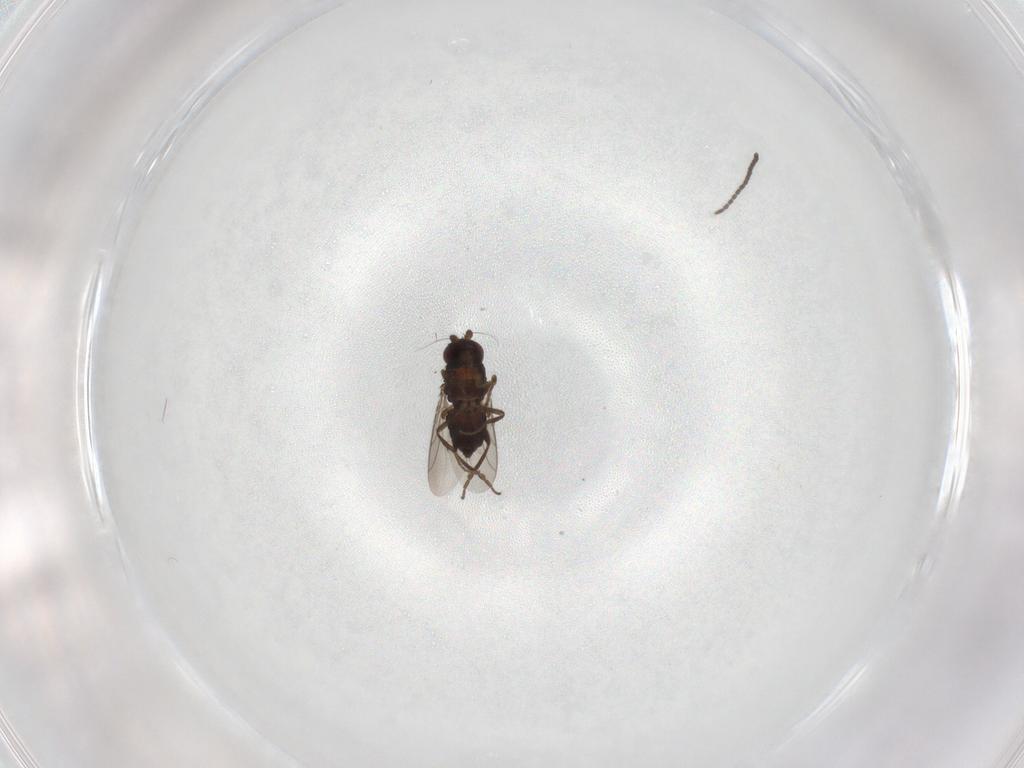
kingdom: Animalia
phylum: Arthropoda
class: Insecta
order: Diptera
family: Sphaeroceridae
